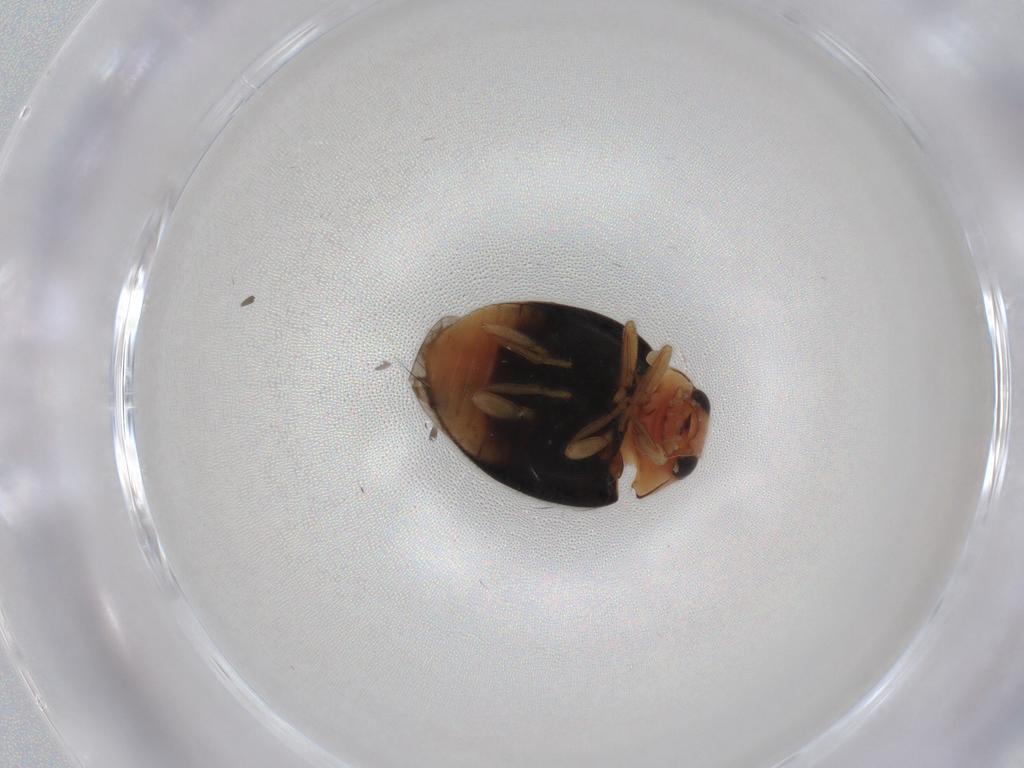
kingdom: Animalia
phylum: Arthropoda
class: Insecta
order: Coleoptera
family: Coccinellidae
